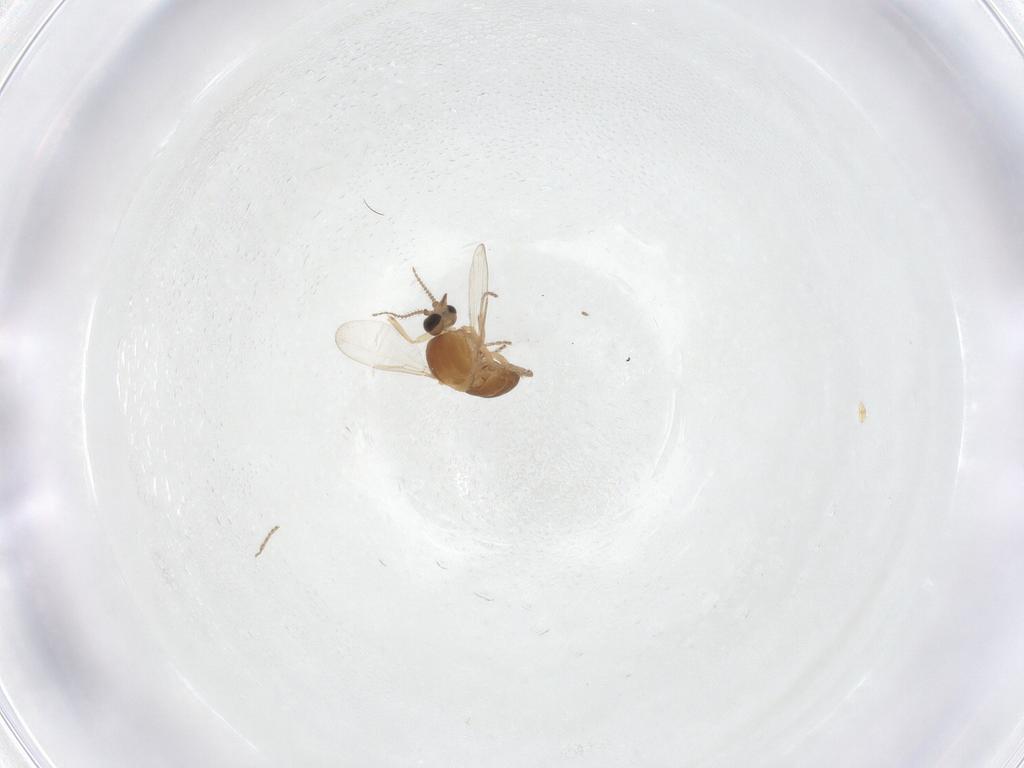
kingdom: Animalia
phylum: Arthropoda
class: Insecta
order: Diptera
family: Ceratopogonidae
